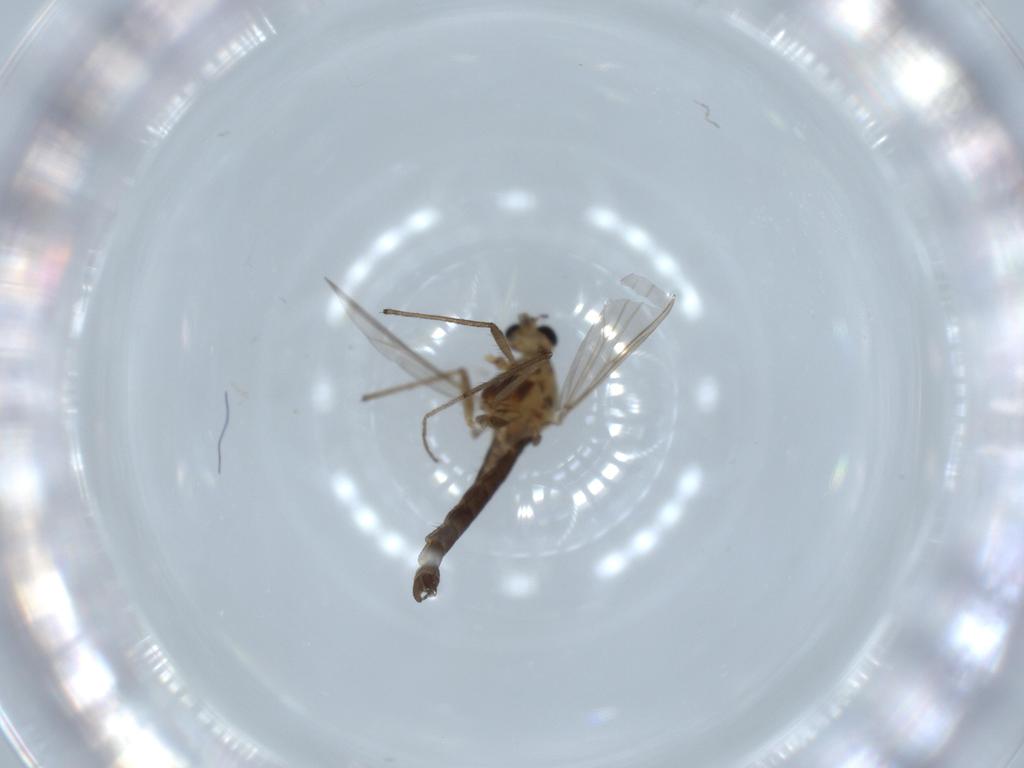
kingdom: Animalia
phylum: Arthropoda
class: Insecta
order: Diptera
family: Chironomidae
